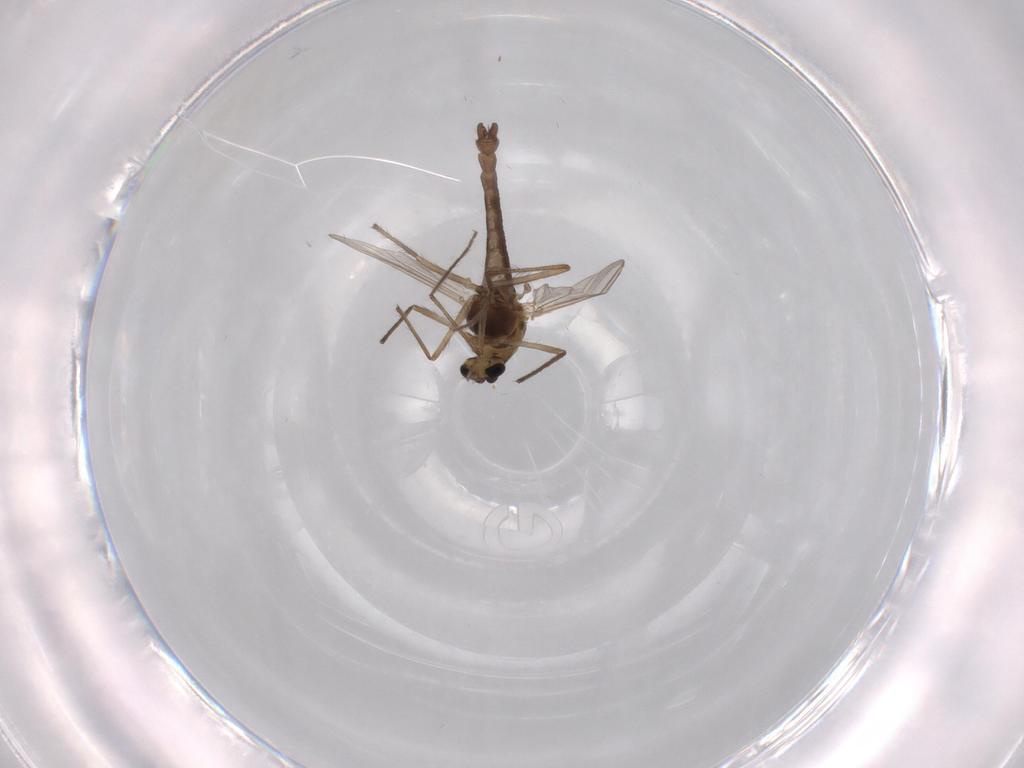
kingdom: Animalia
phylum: Arthropoda
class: Insecta
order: Diptera
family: Chironomidae
